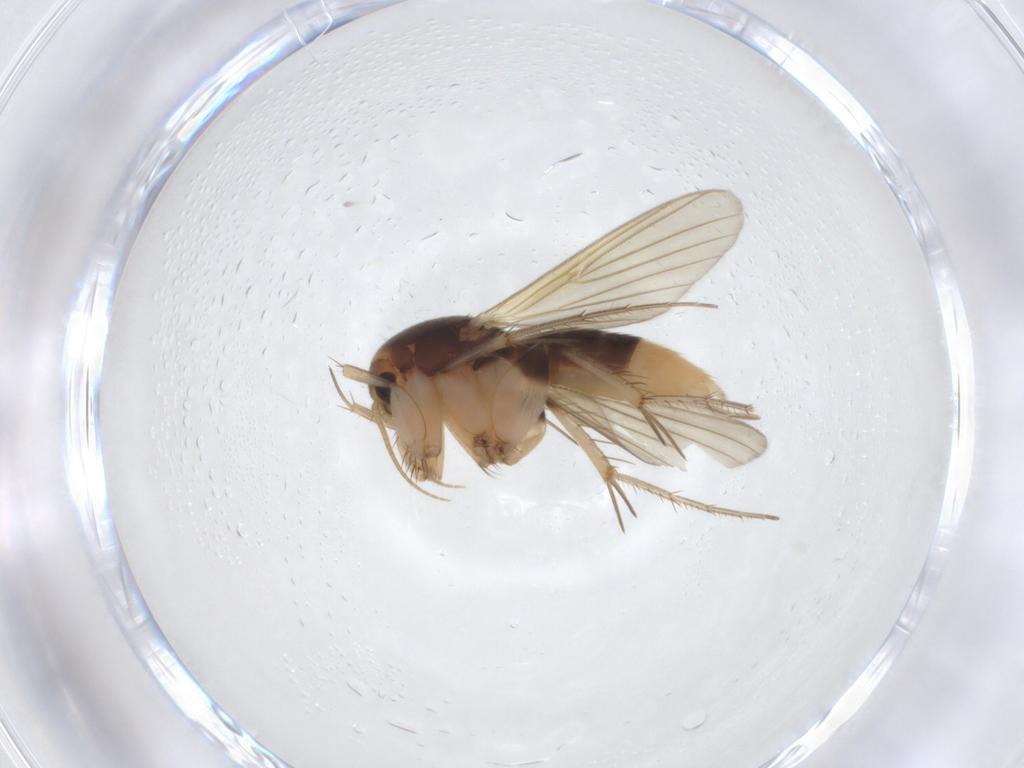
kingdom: Animalia
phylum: Arthropoda
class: Insecta
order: Diptera
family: Mycetophilidae
